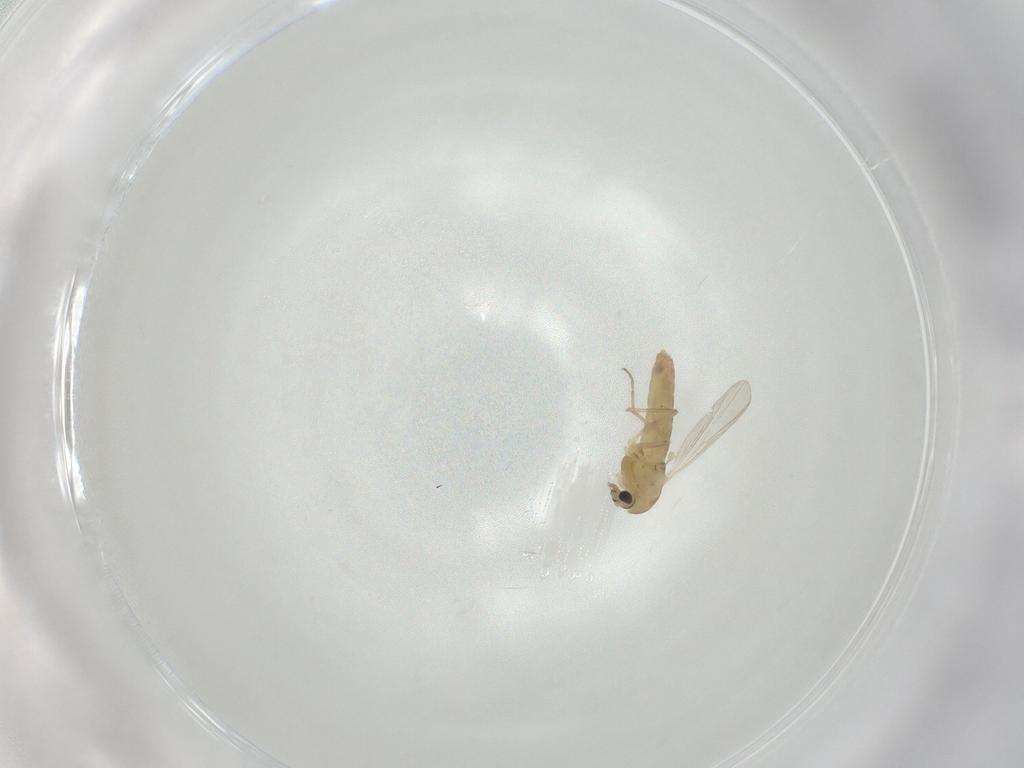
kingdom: Animalia
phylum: Arthropoda
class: Insecta
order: Diptera
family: Chironomidae
